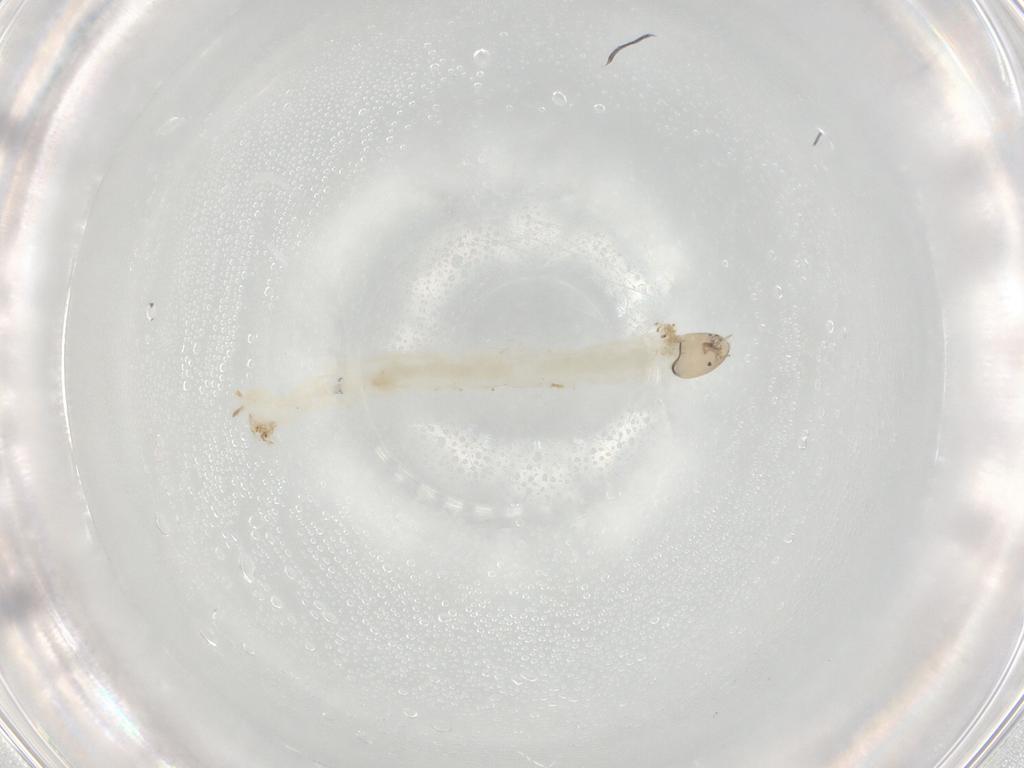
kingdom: Animalia
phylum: Arthropoda
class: Insecta
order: Diptera
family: Chironomidae
